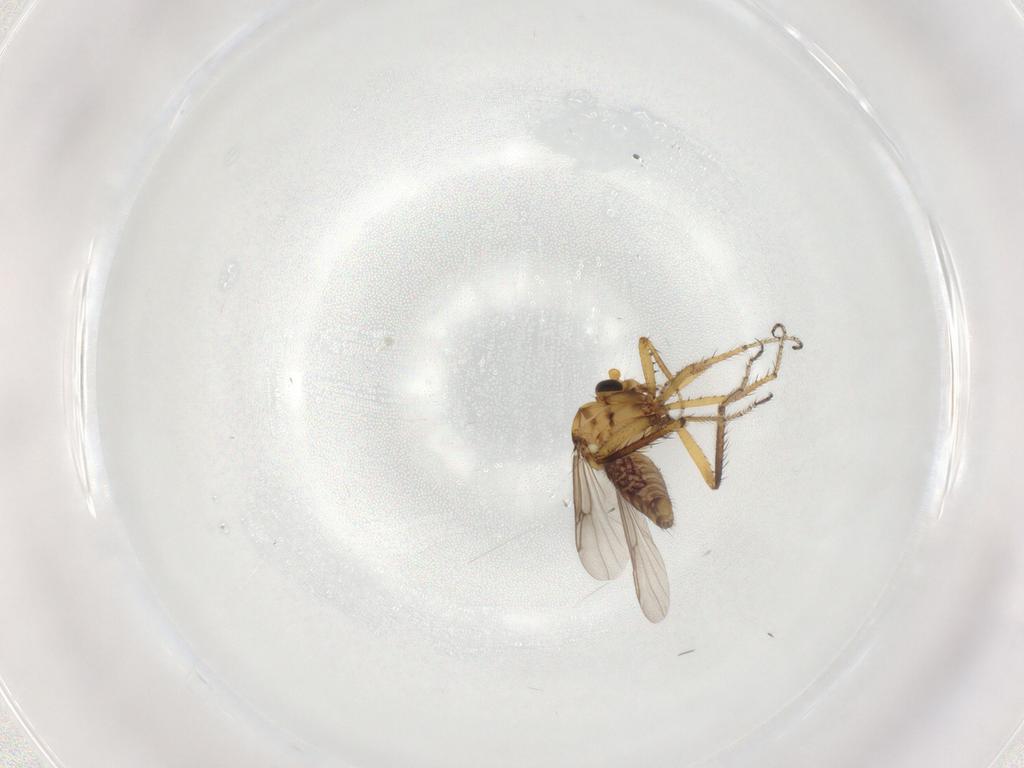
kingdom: Animalia
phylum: Arthropoda
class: Insecta
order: Diptera
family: Ceratopogonidae
